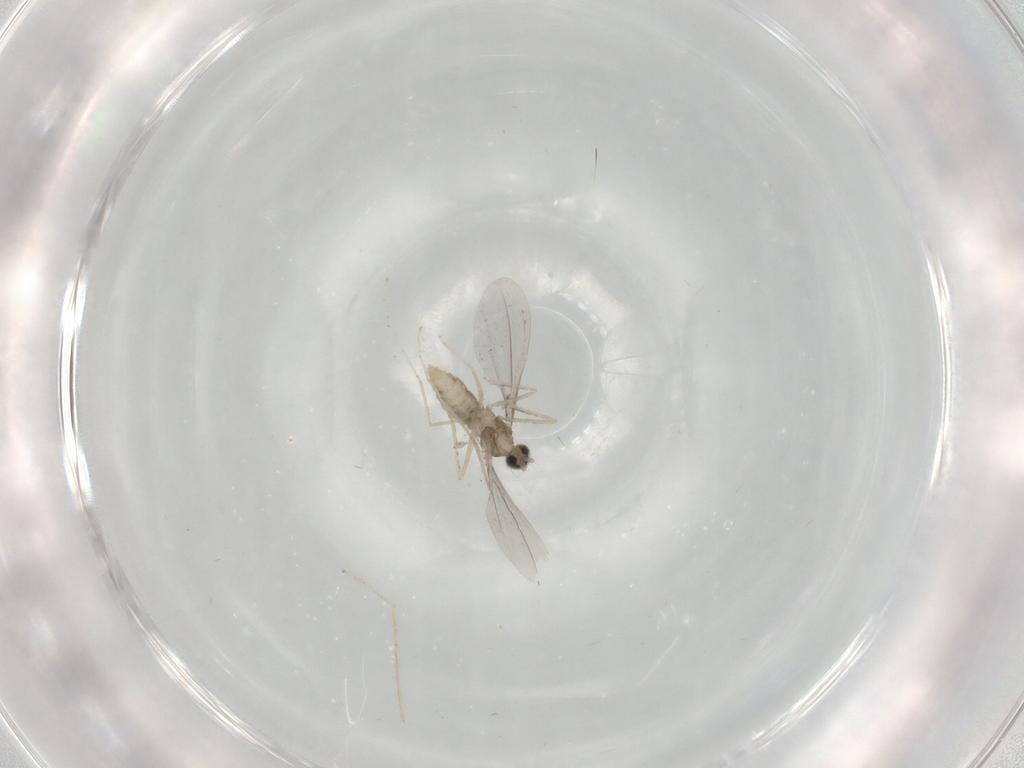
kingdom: Animalia
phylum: Arthropoda
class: Insecta
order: Diptera
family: Cecidomyiidae
